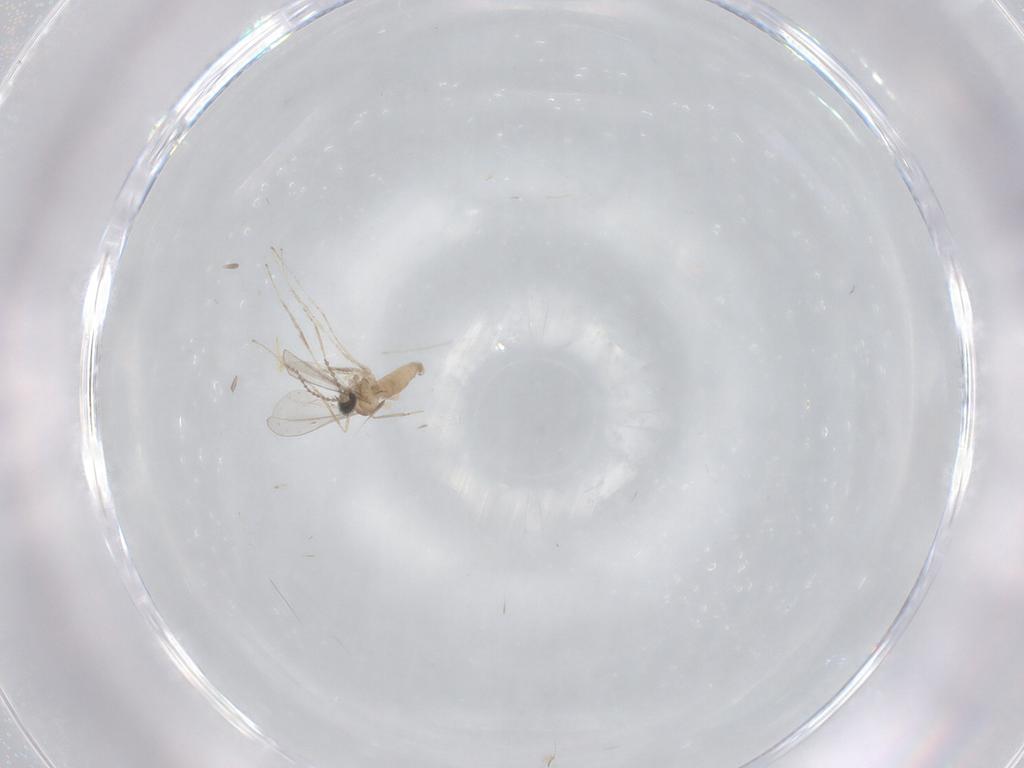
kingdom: Animalia
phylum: Arthropoda
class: Insecta
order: Diptera
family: Cecidomyiidae
